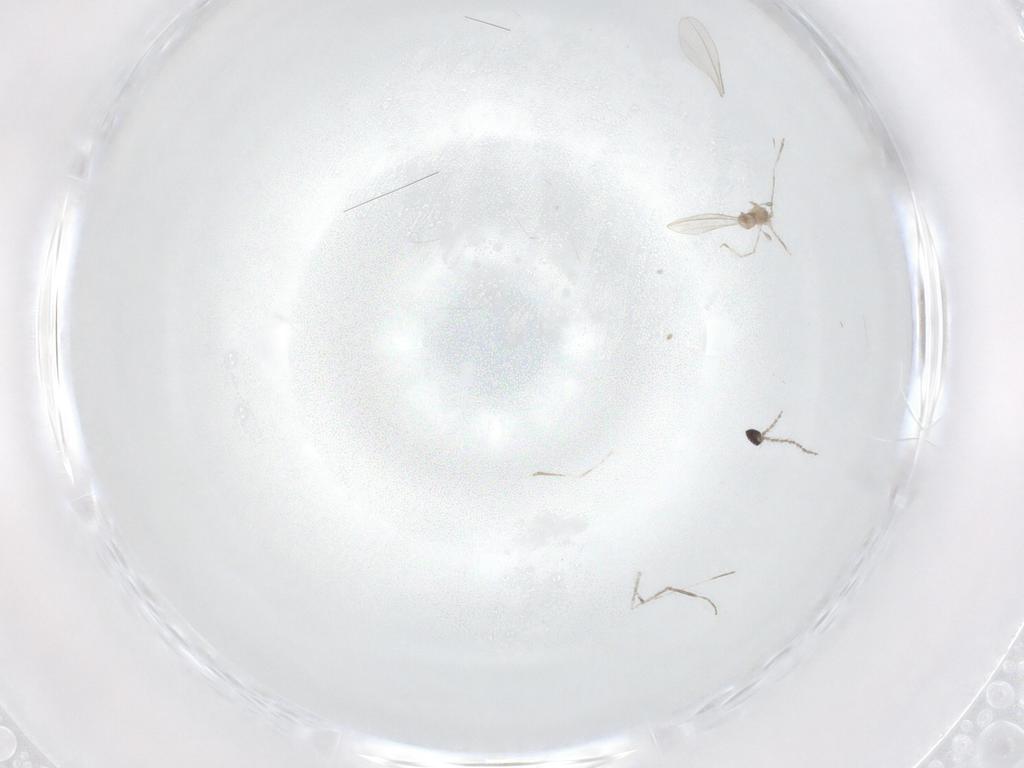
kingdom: Animalia
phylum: Arthropoda
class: Insecta
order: Diptera
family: Cecidomyiidae
